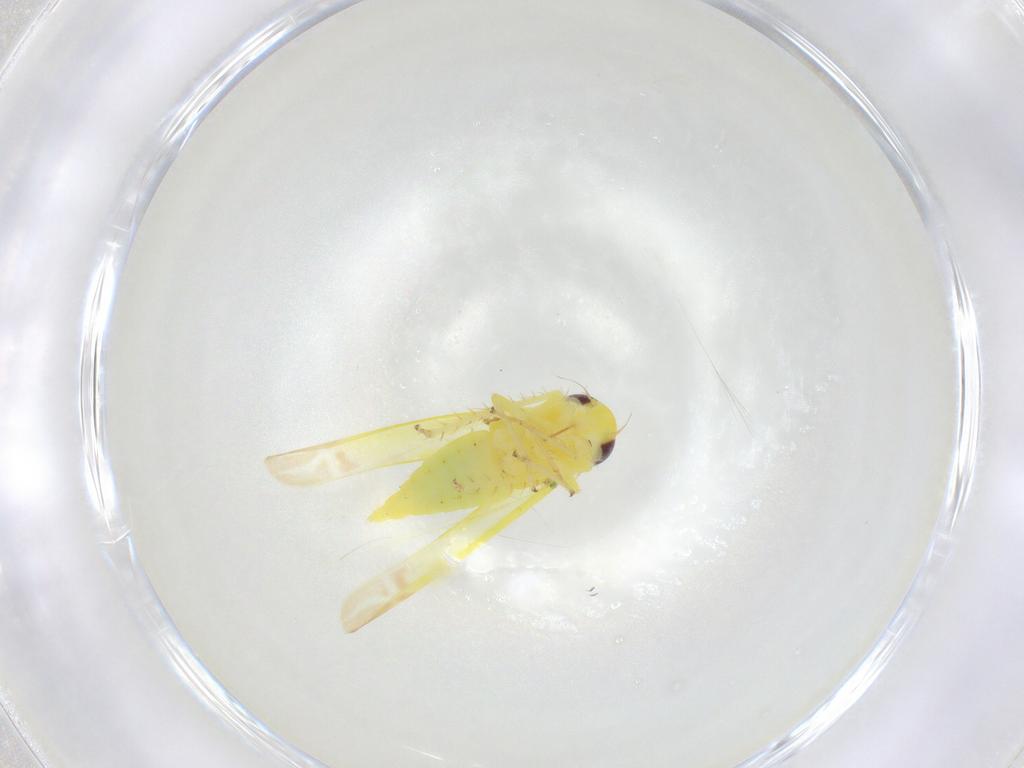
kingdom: Animalia
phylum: Arthropoda
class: Insecta
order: Hemiptera
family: Cicadellidae
